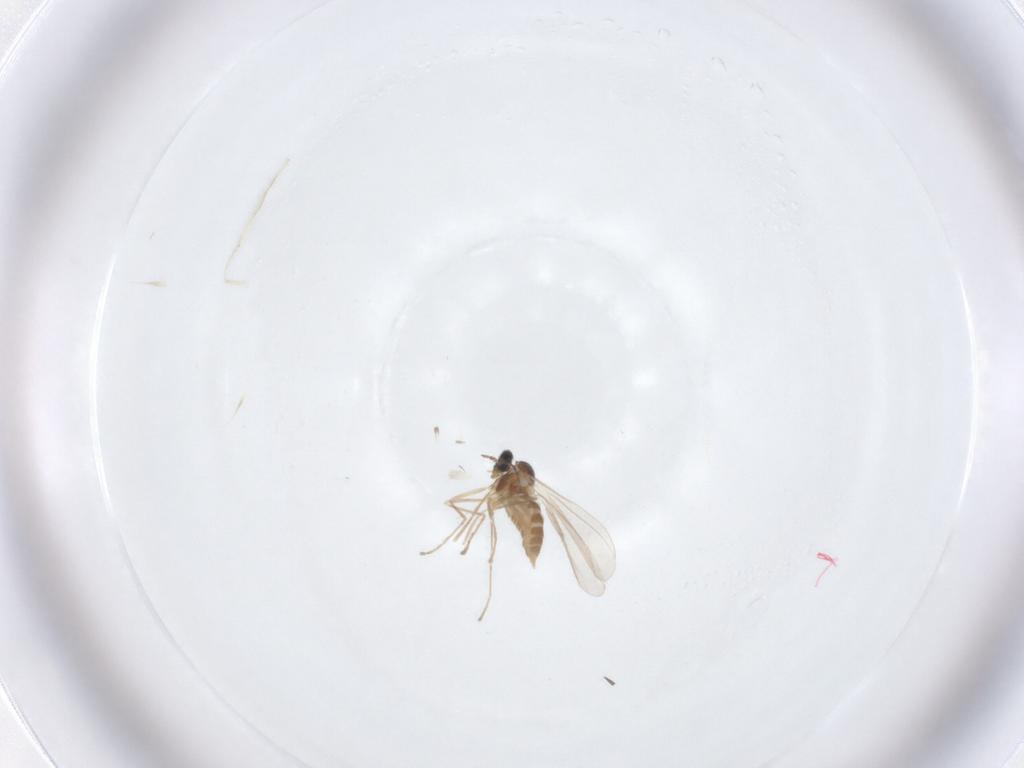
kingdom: Animalia
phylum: Arthropoda
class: Insecta
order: Diptera
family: Cecidomyiidae
